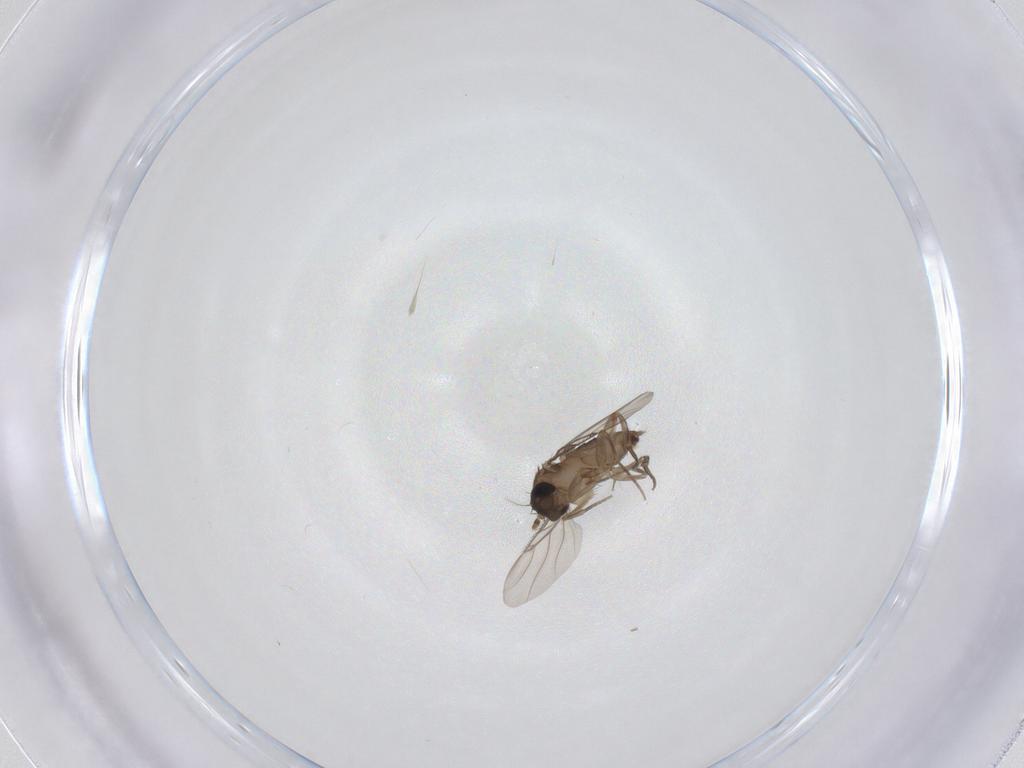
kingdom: Animalia
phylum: Arthropoda
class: Insecta
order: Diptera
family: Phoridae
